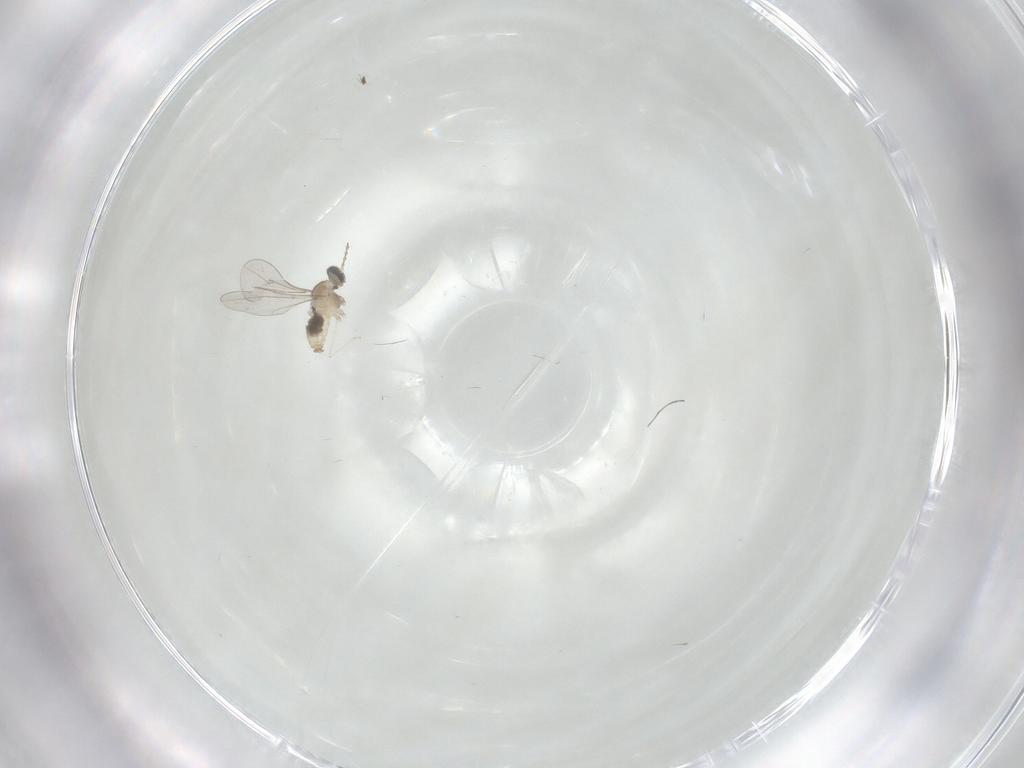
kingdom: Animalia
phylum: Arthropoda
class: Insecta
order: Diptera
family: Cecidomyiidae
